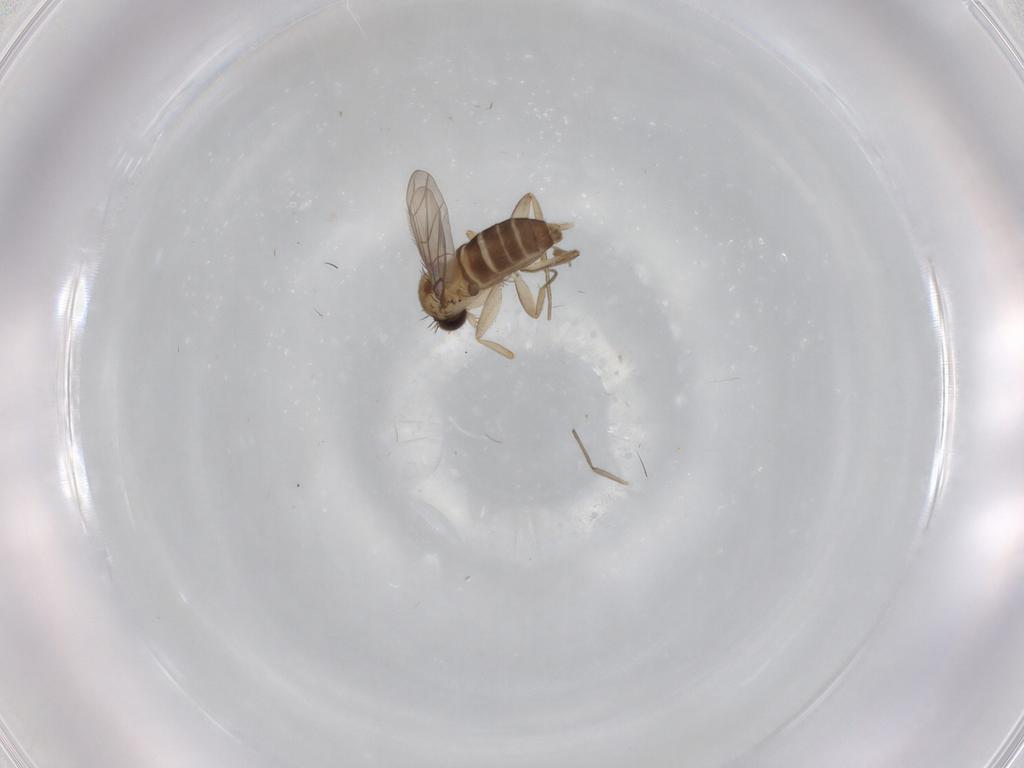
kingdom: Animalia
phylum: Arthropoda
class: Insecta
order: Diptera
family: Phoridae
